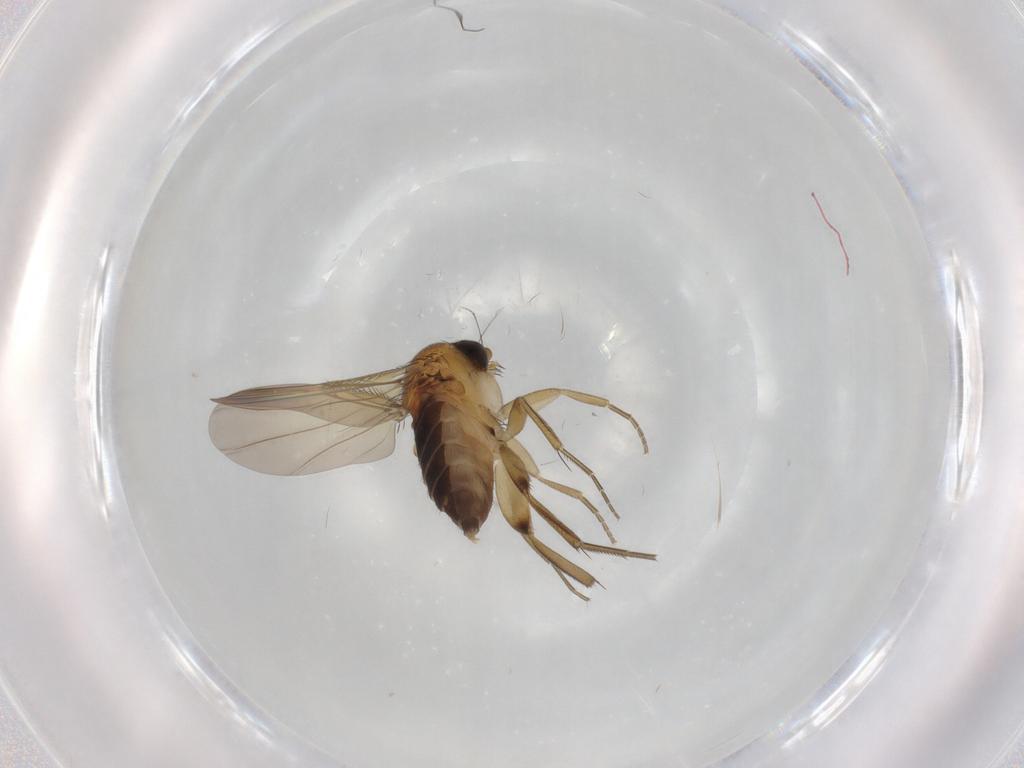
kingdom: Animalia
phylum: Arthropoda
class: Insecta
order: Diptera
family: Phoridae
